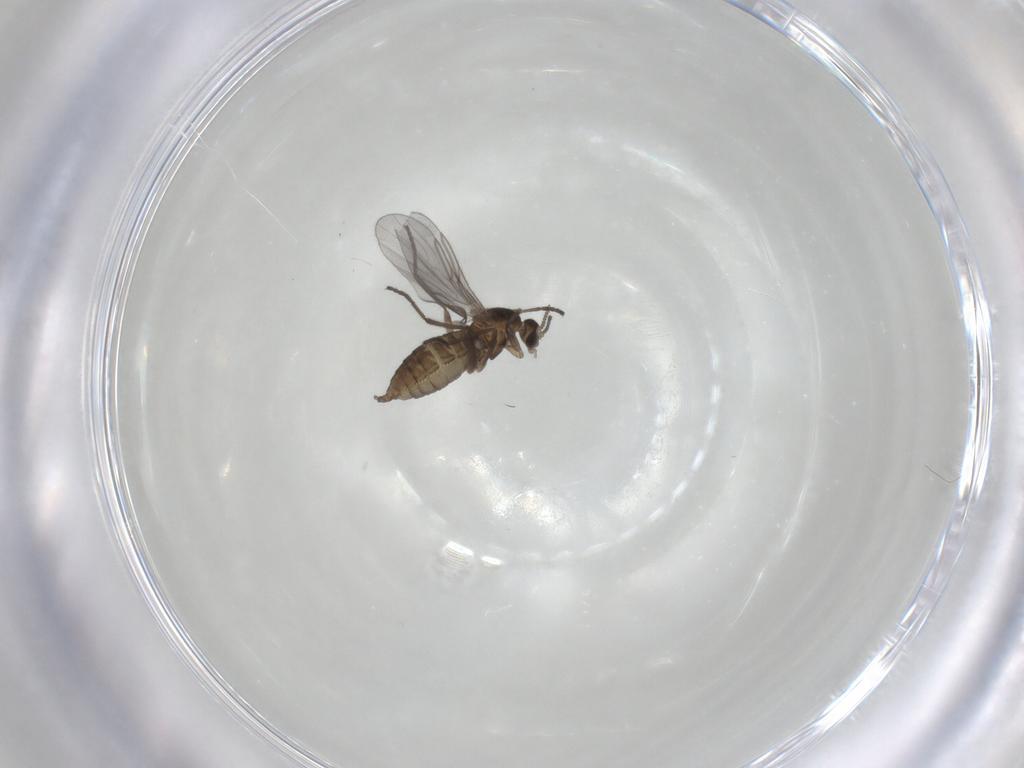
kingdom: Animalia
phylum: Arthropoda
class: Insecta
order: Diptera
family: Cecidomyiidae
